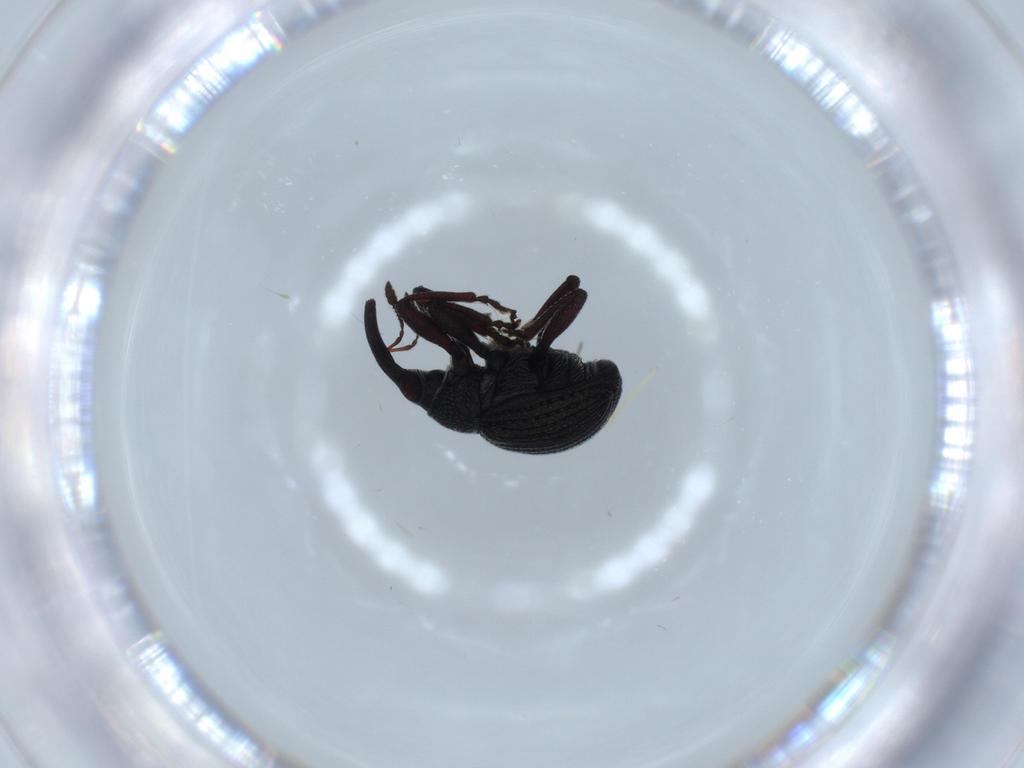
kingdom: Animalia
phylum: Arthropoda
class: Insecta
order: Coleoptera
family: Brentidae
